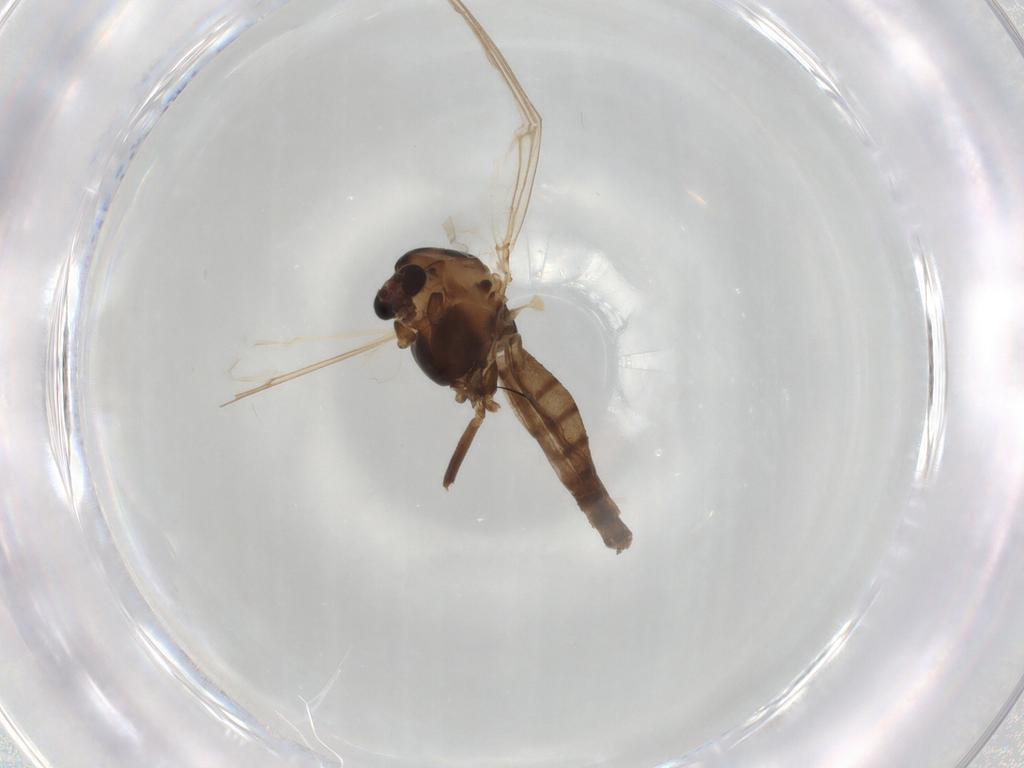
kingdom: Animalia
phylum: Arthropoda
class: Insecta
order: Diptera
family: Chironomidae
